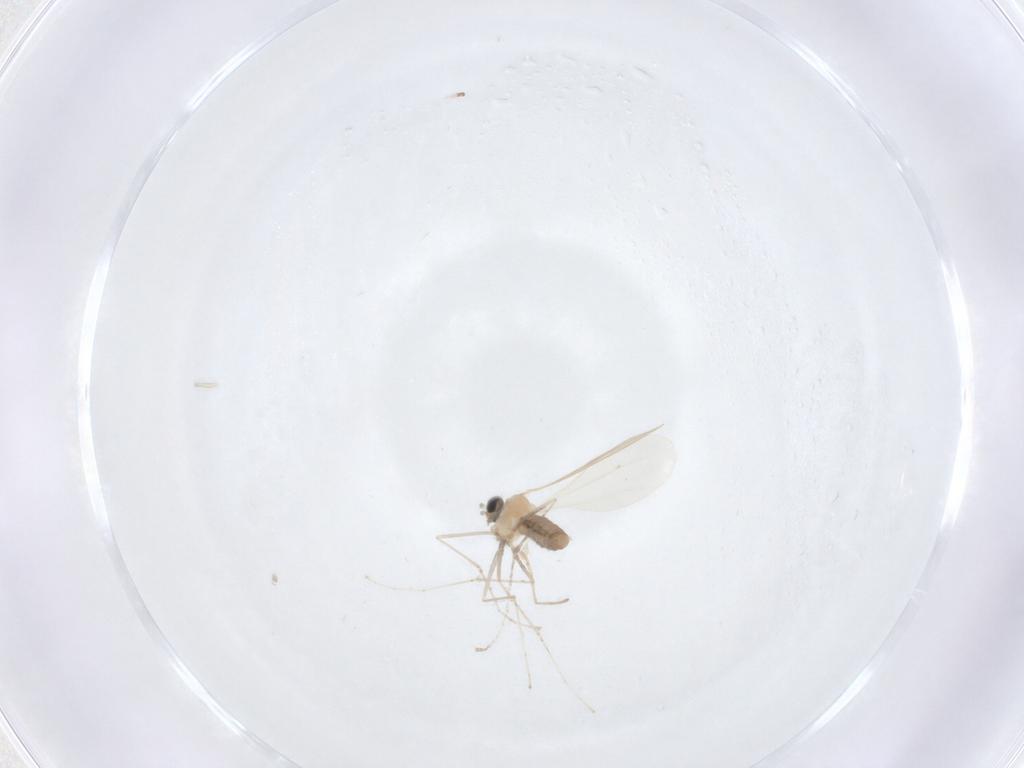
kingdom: Animalia
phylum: Arthropoda
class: Insecta
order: Diptera
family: Cecidomyiidae
